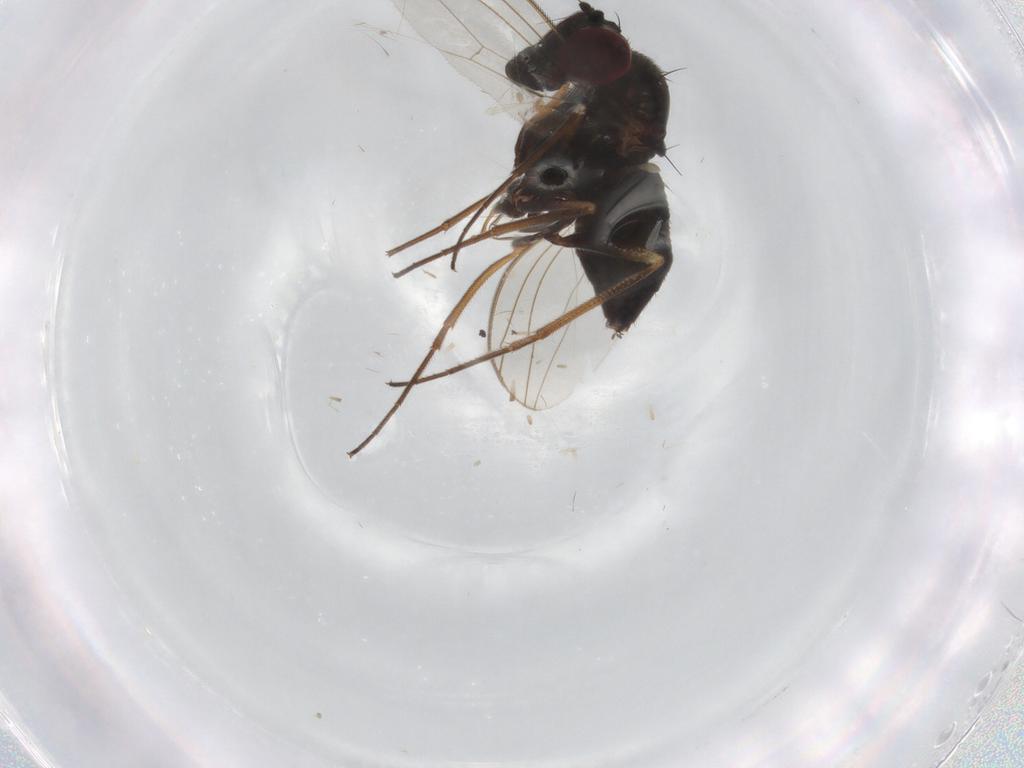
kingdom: Animalia
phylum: Arthropoda
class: Insecta
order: Diptera
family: Dolichopodidae
